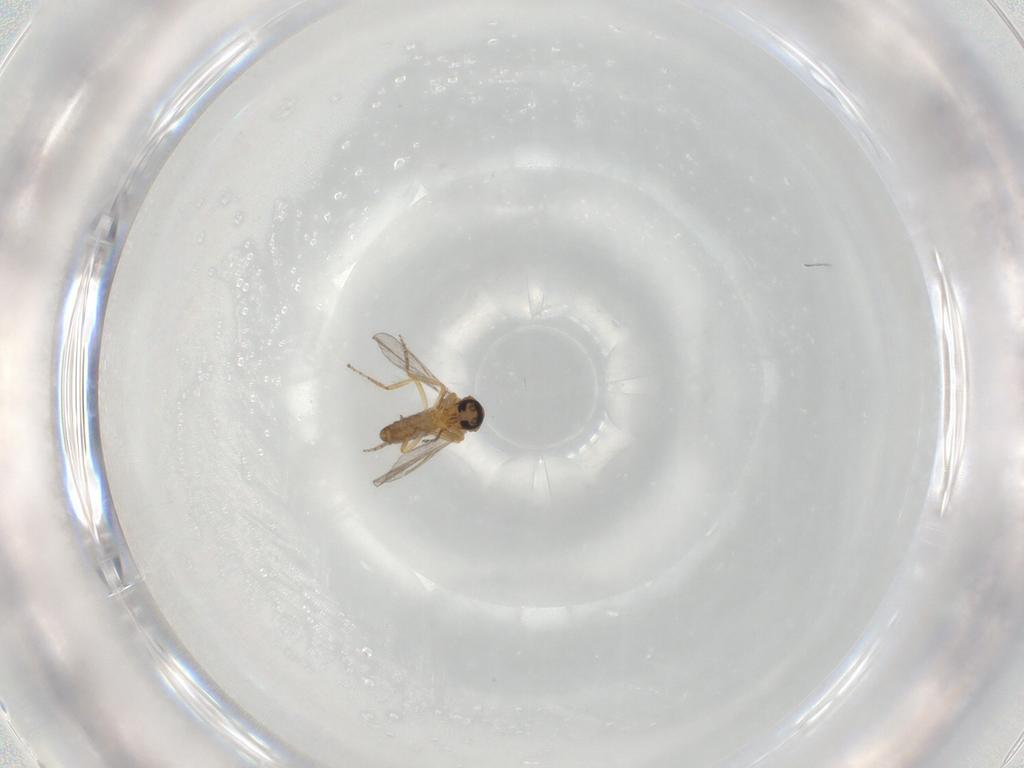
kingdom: Animalia
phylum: Arthropoda
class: Insecta
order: Diptera
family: Ceratopogonidae
